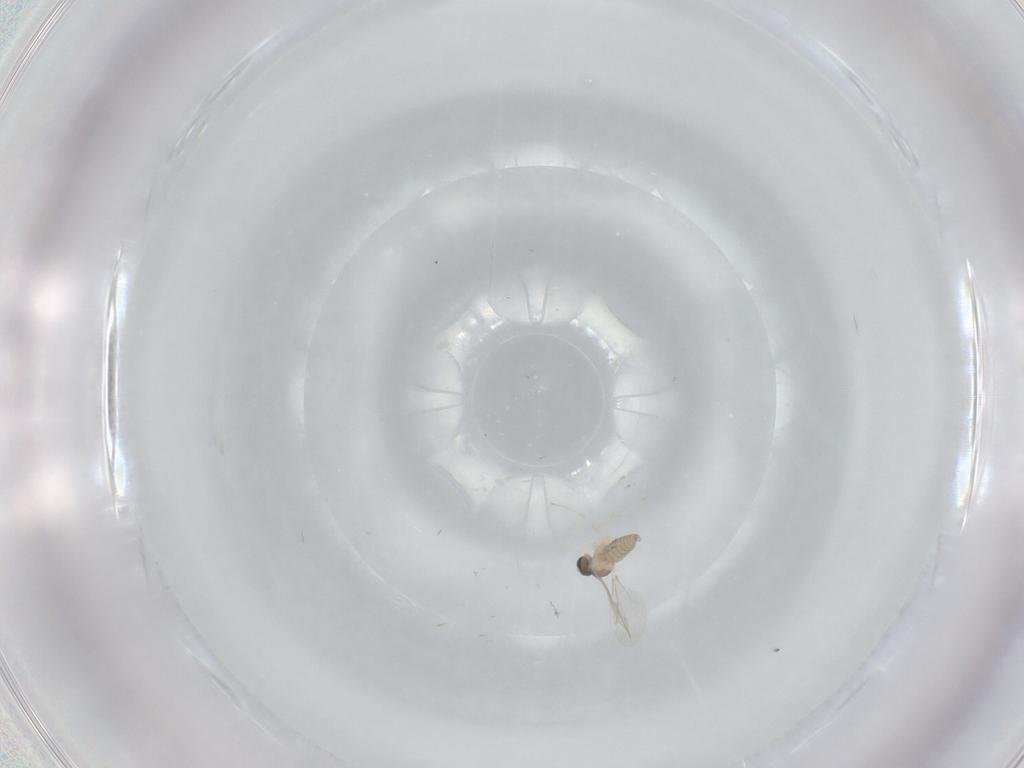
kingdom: Animalia
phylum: Arthropoda
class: Insecta
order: Diptera
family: Cecidomyiidae
